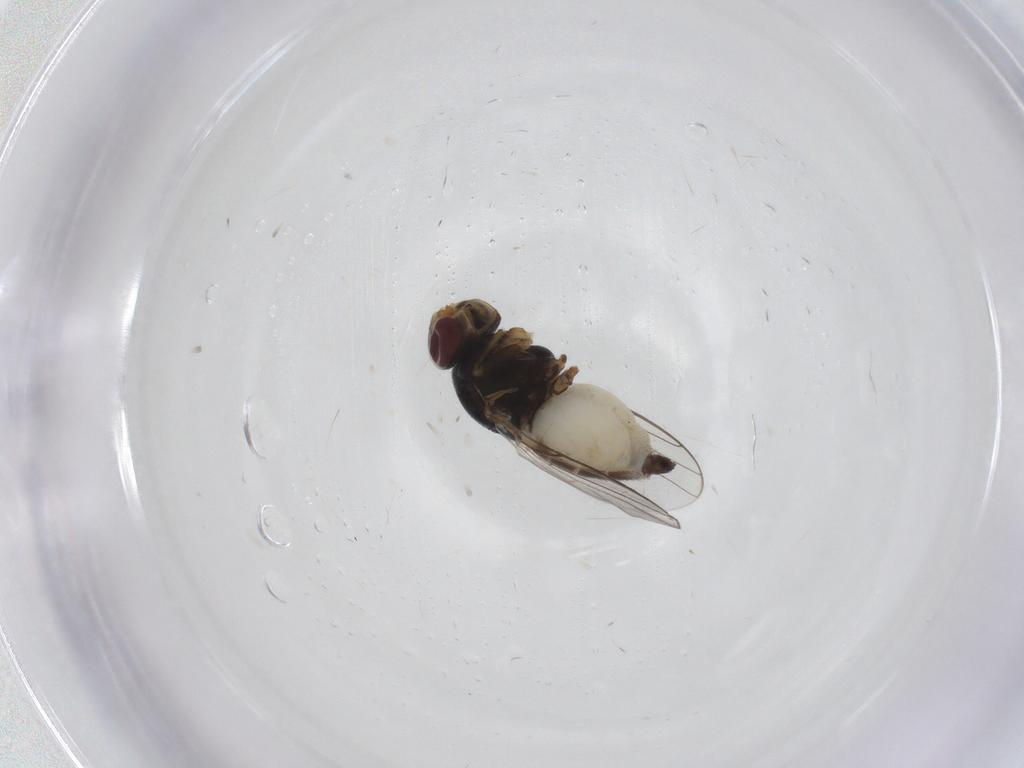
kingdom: Animalia
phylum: Arthropoda
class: Insecta
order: Diptera
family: Chloropidae
